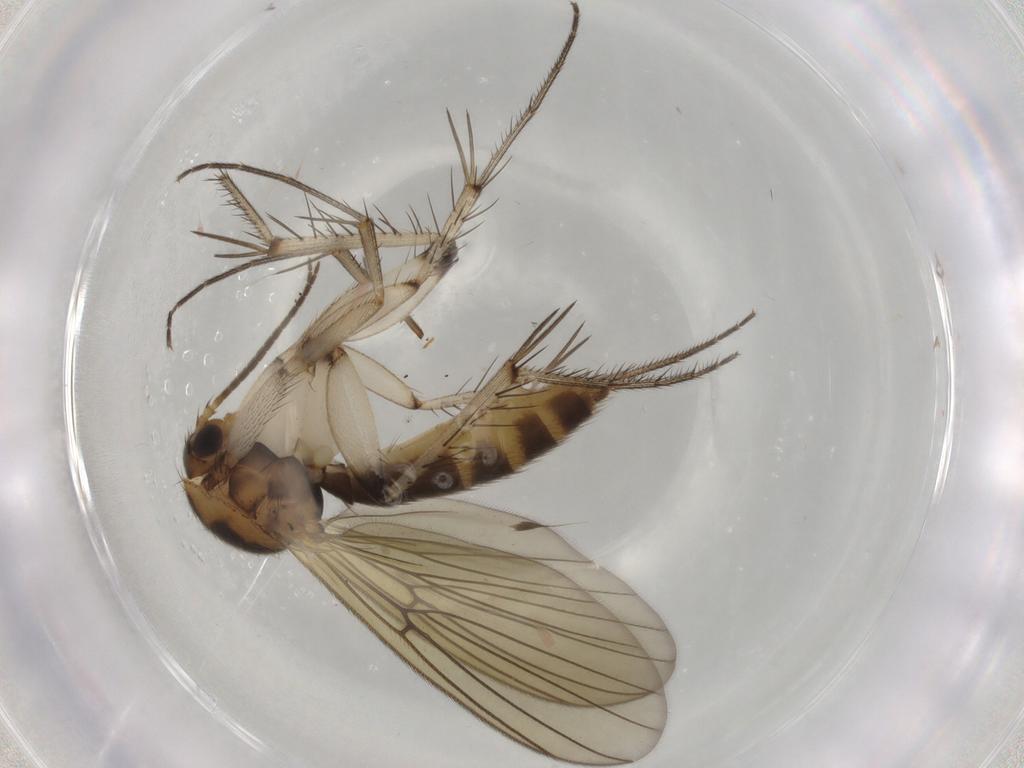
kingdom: Animalia
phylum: Arthropoda
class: Insecta
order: Diptera
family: Mycetophilidae
